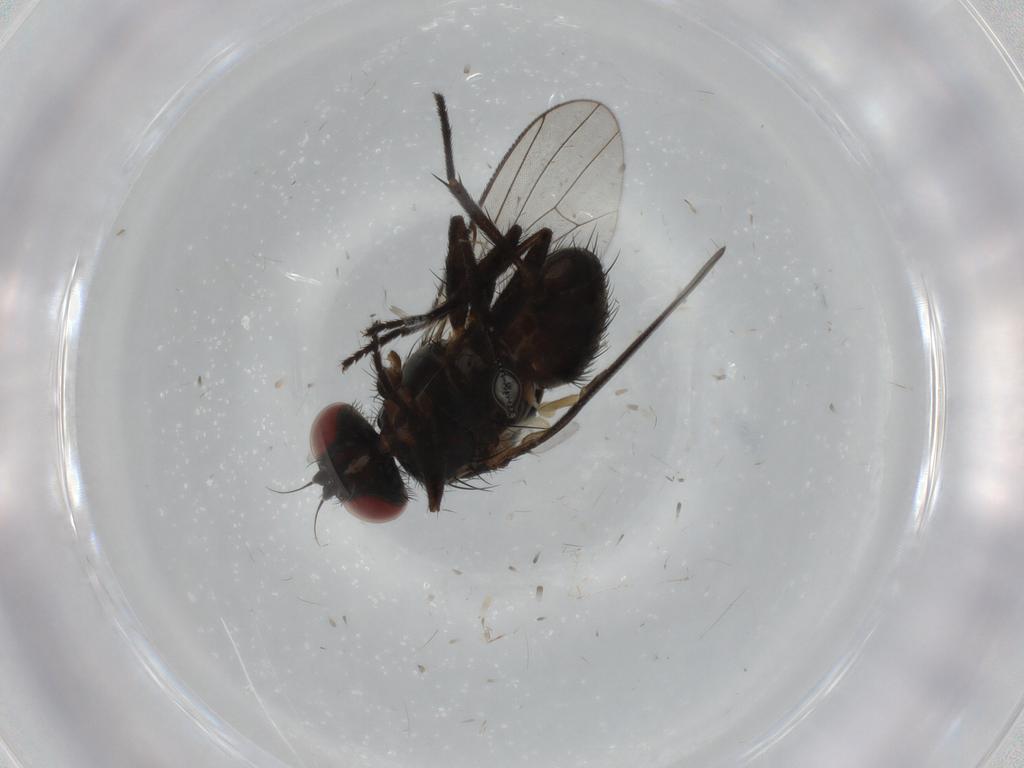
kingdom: Animalia
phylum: Arthropoda
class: Insecta
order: Diptera
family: Muscidae
